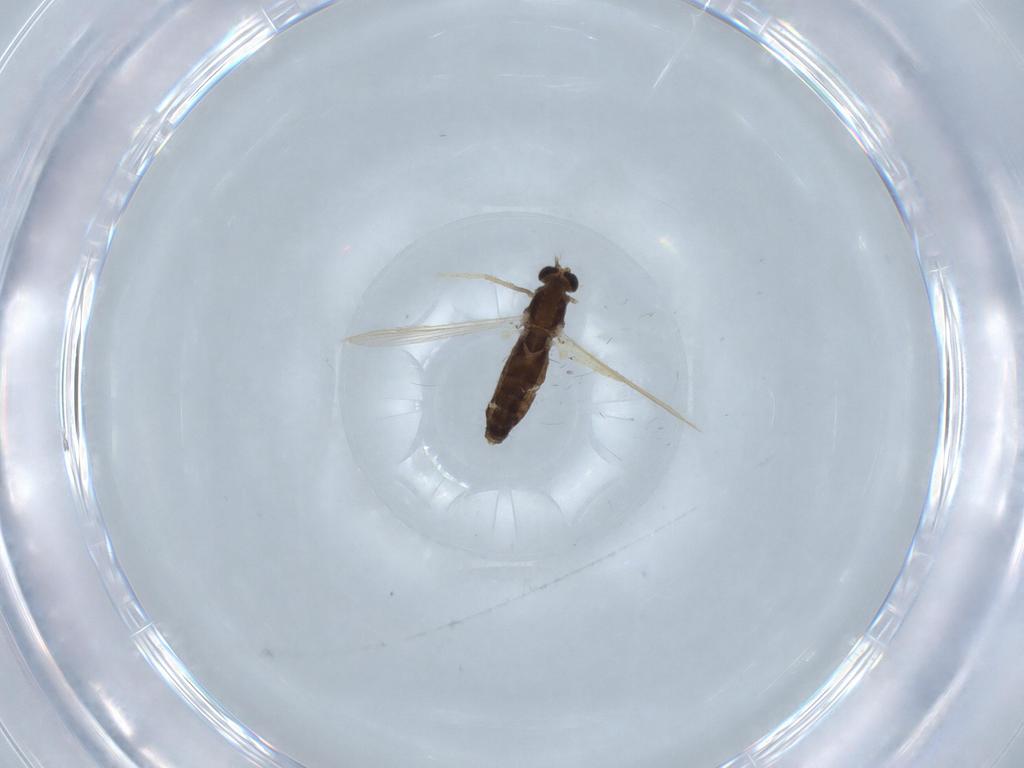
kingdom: Animalia
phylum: Arthropoda
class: Insecta
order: Diptera
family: Chironomidae
